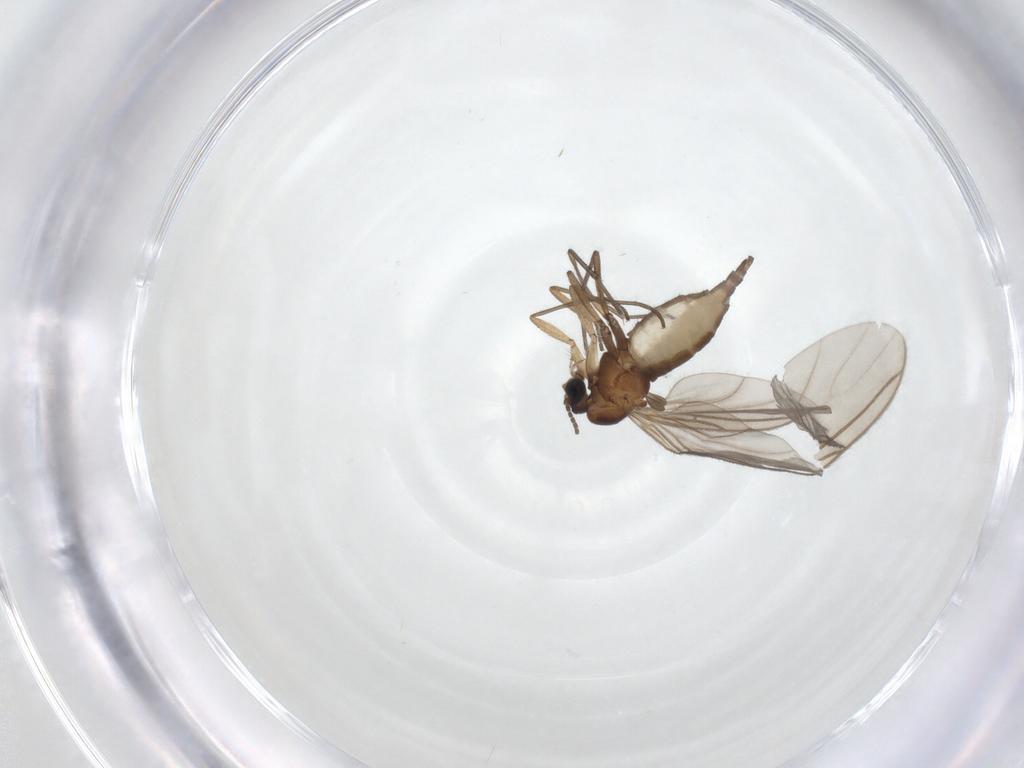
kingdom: Animalia
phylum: Arthropoda
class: Insecta
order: Diptera
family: Sciaridae
